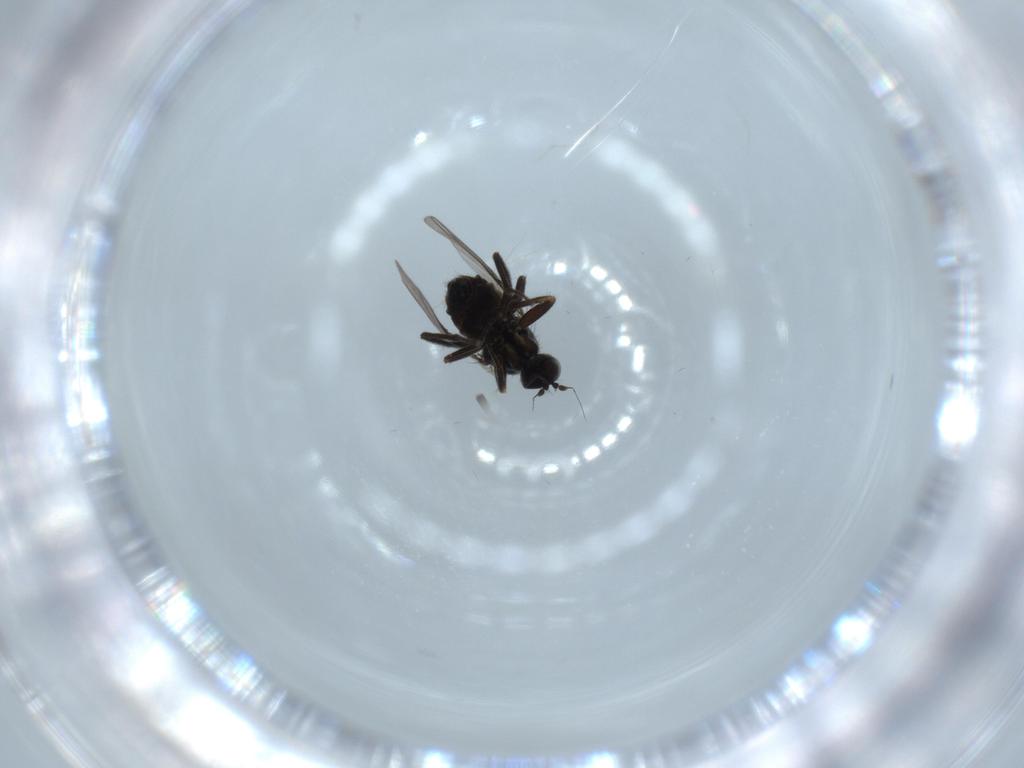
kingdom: Animalia
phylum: Arthropoda
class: Insecta
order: Diptera
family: Hybotidae
